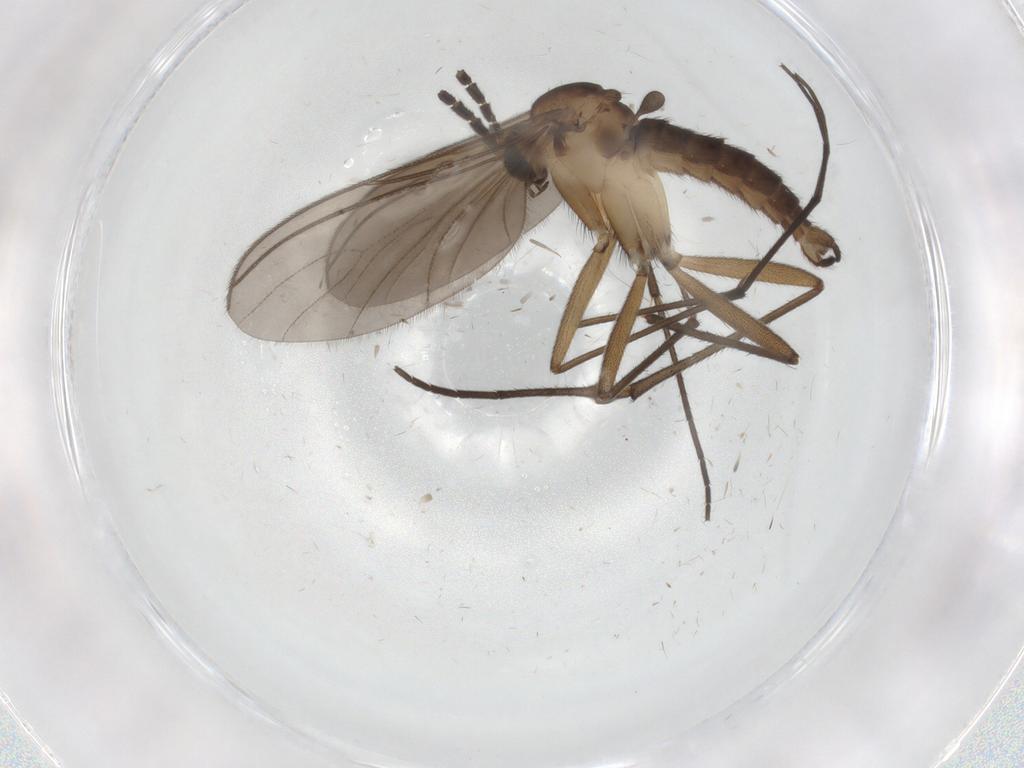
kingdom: Animalia
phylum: Arthropoda
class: Insecta
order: Diptera
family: Cecidomyiidae
